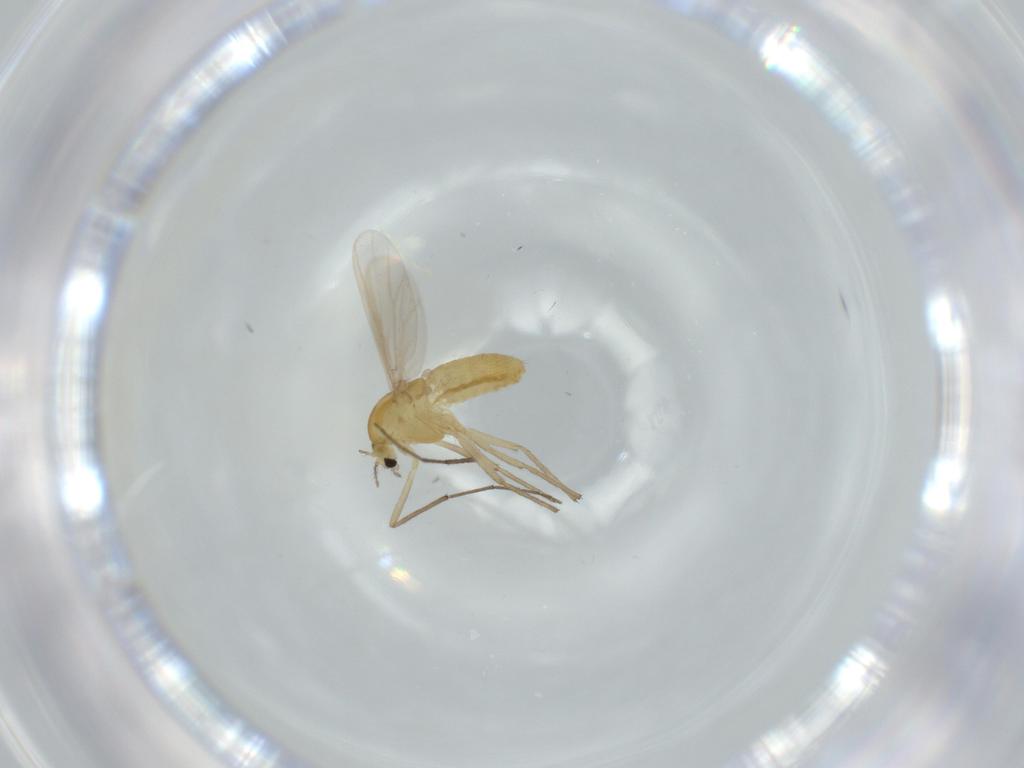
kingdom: Animalia
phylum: Arthropoda
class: Insecta
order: Diptera
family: Chironomidae
